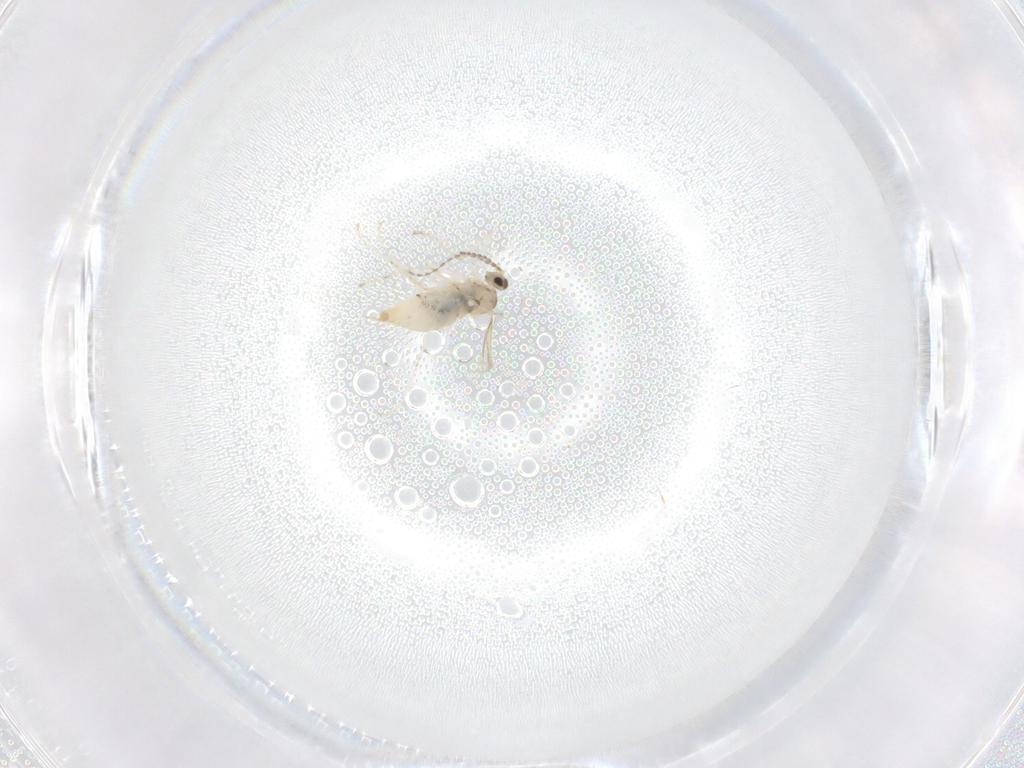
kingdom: Animalia
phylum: Arthropoda
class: Insecta
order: Diptera
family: Cecidomyiidae
